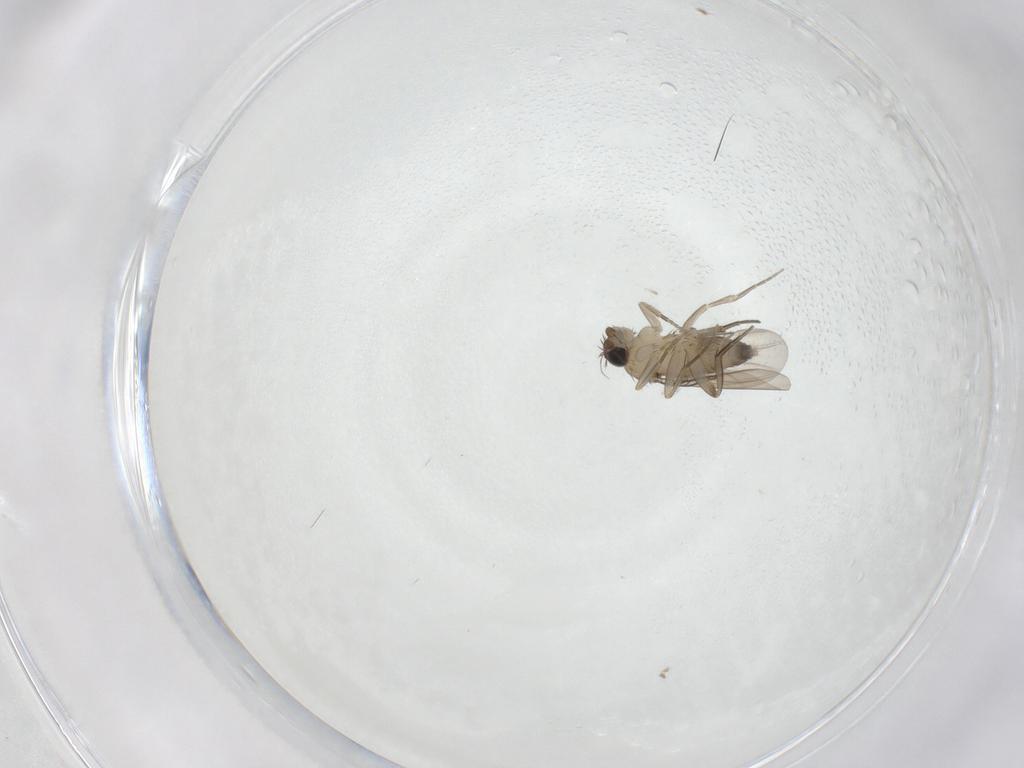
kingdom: Animalia
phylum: Arthropoda
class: Insecta
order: Diptera
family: Phoridae
